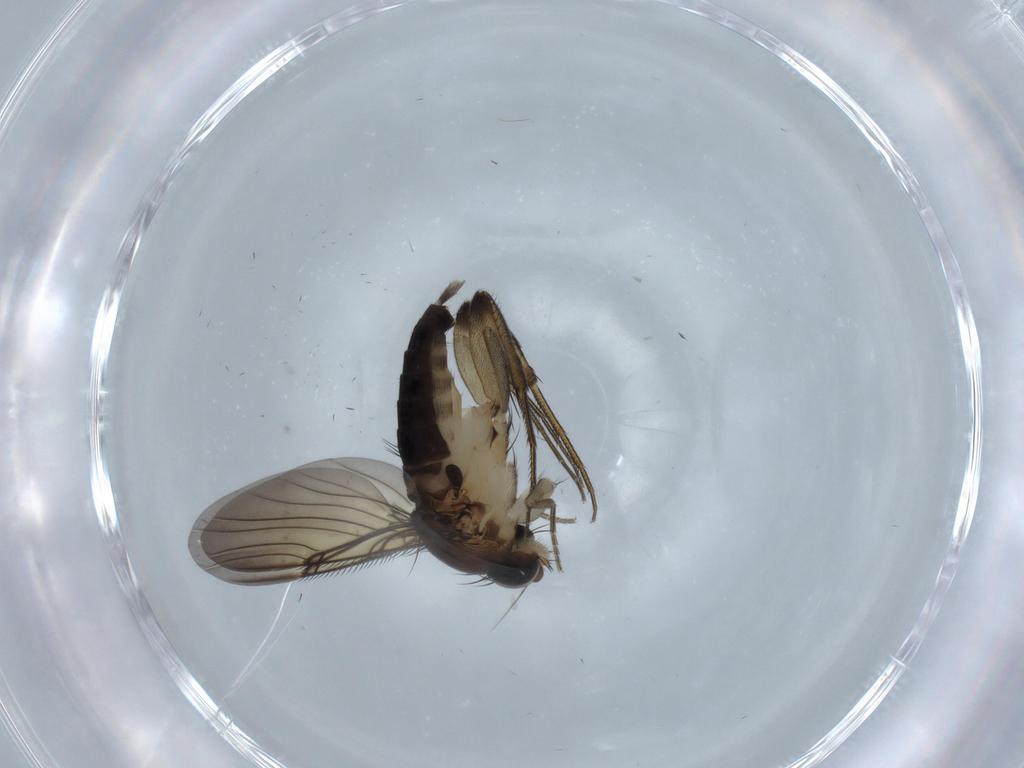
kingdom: Animalia
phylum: Arthropoda
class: Insecta
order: Diptera
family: Phoridae
